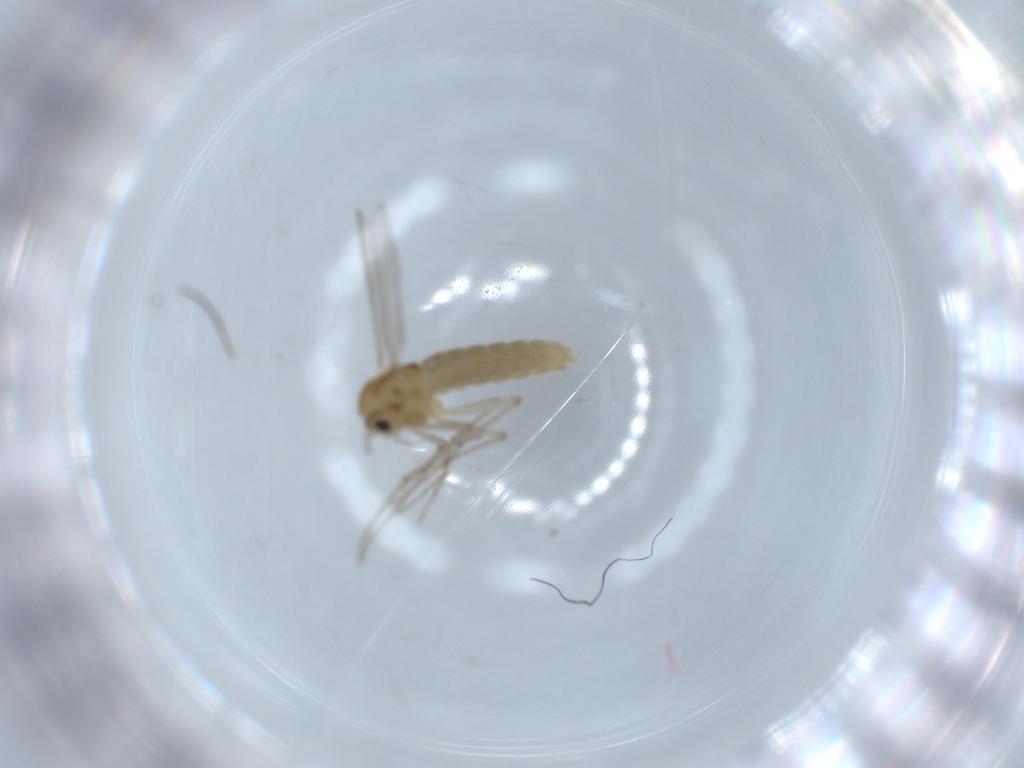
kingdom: Animalia
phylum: Arthropoda
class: Insecta
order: Diptera
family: Chironomidae
